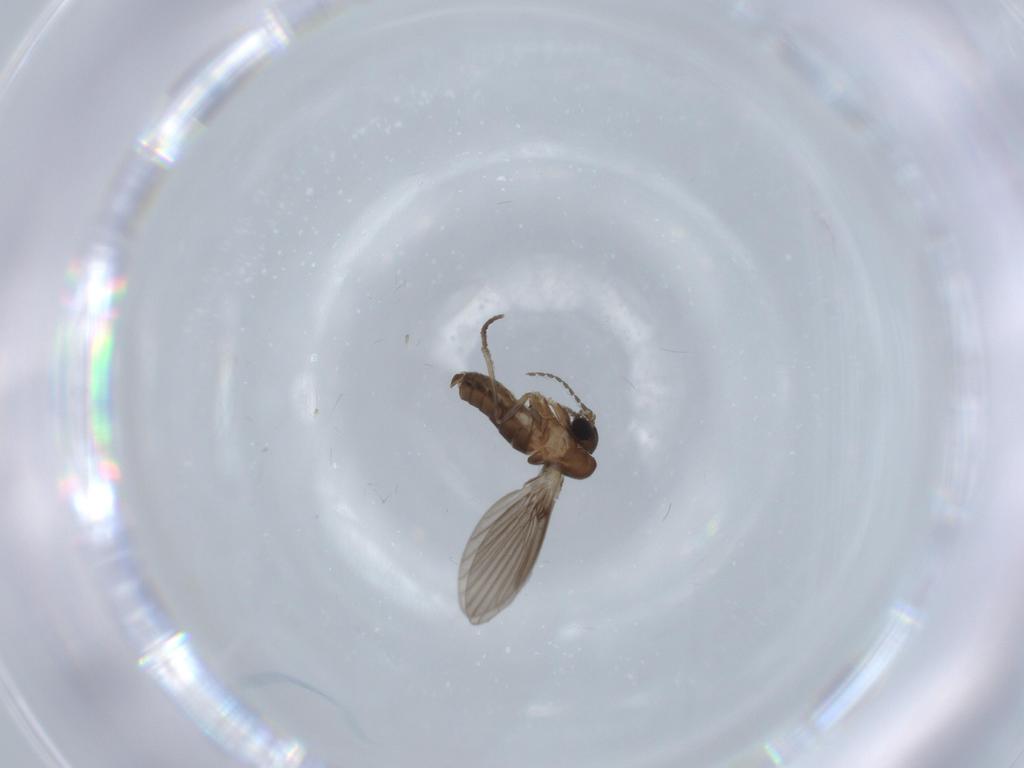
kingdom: Animalia
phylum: Arthropoda
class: Insecta
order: Diptera
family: Psychodidae
